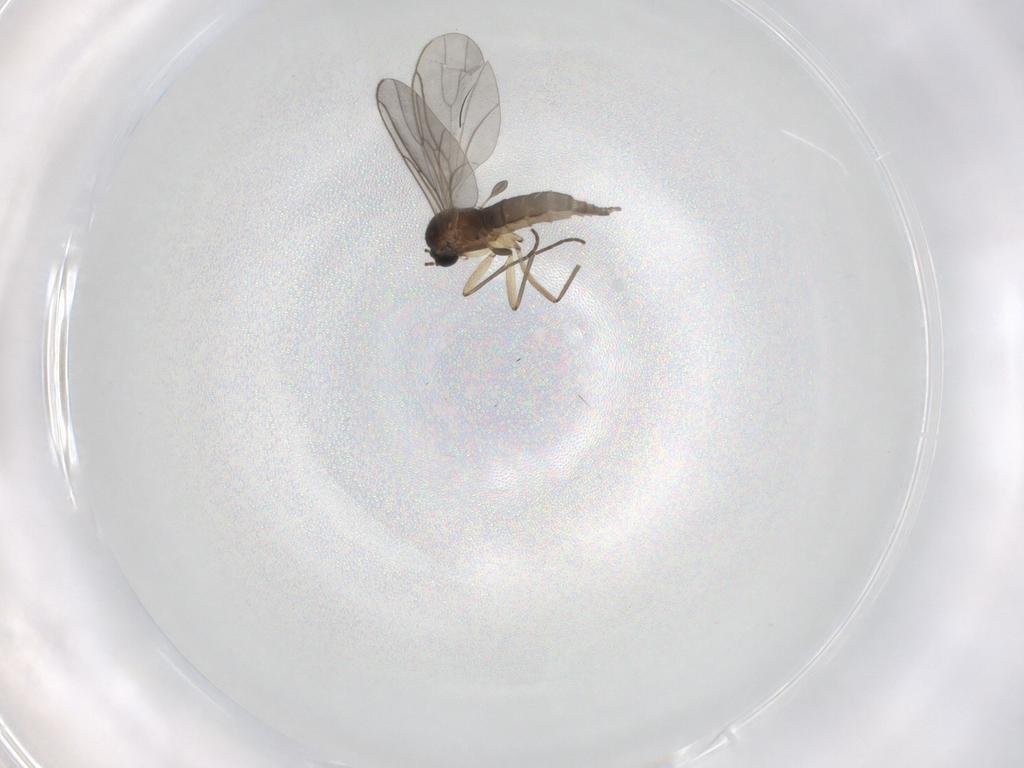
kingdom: Animalia
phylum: Arthropoda
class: Insecta
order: Diptera
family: Sciaridae
